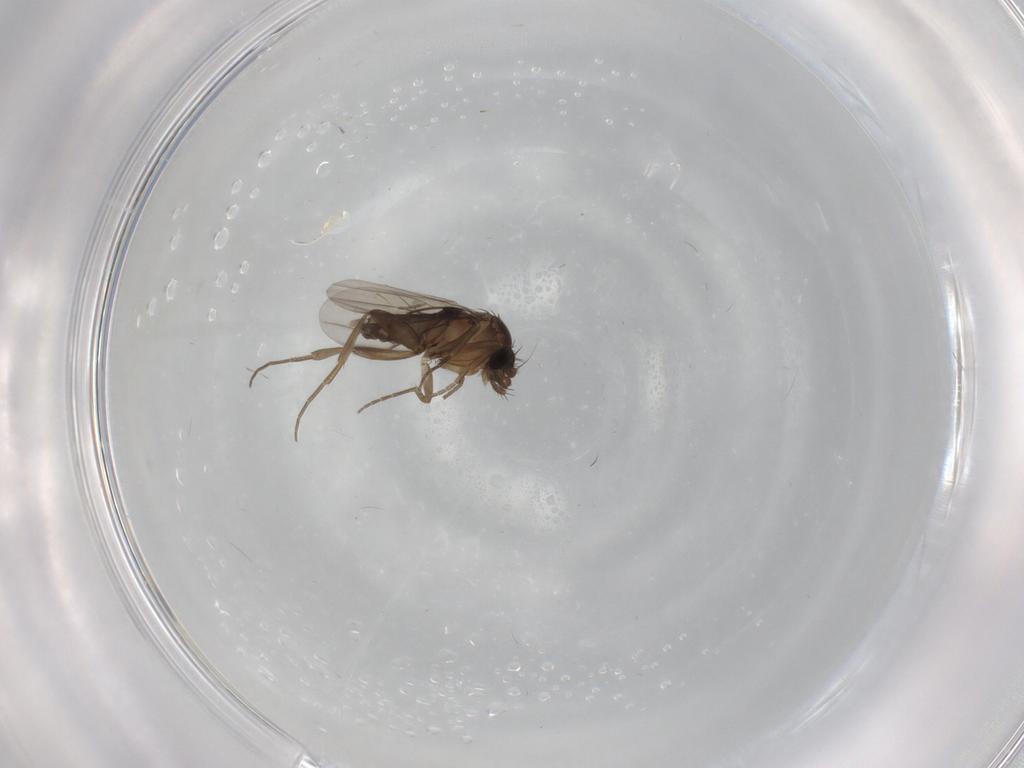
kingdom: Animalia
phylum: Arthropoda
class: Insecta
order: Diptera
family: Phoridae
